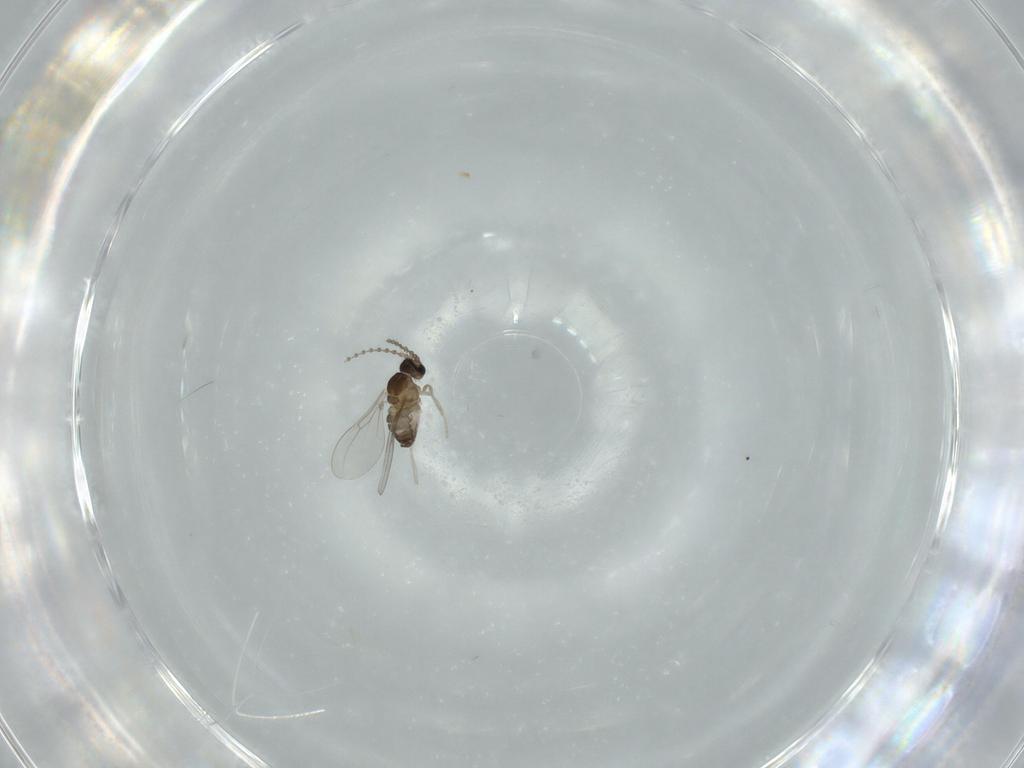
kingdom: Animalia
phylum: Arthropoda
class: Insecta
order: Diptera
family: Cecidomyiidae
